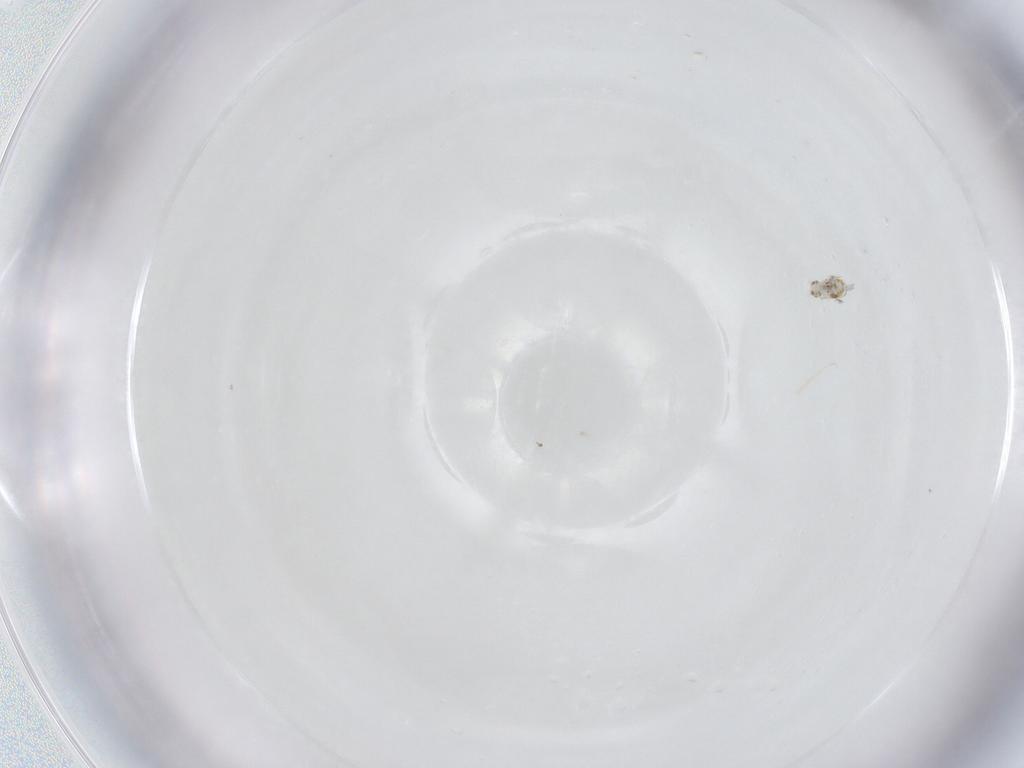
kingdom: Animalia
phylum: Arthropoda
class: Collembola
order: Symphypleona
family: Katiannidae
